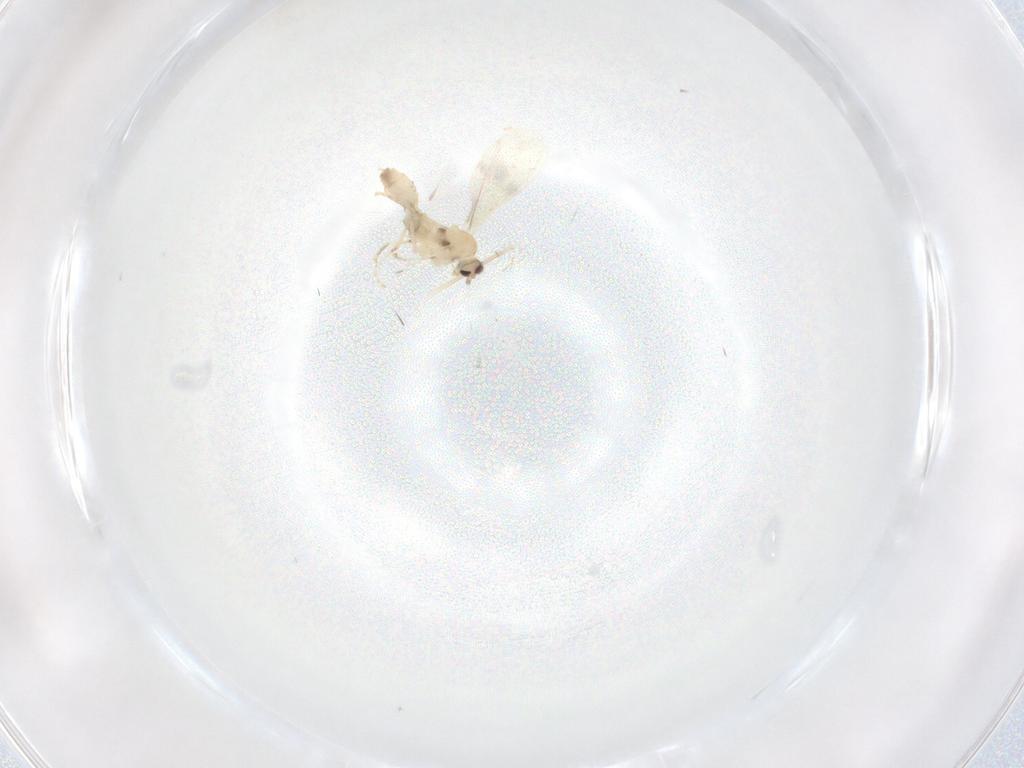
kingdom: Animalia
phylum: Arthropoda
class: Insecta
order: Diptera
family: Cecidomyiidae
